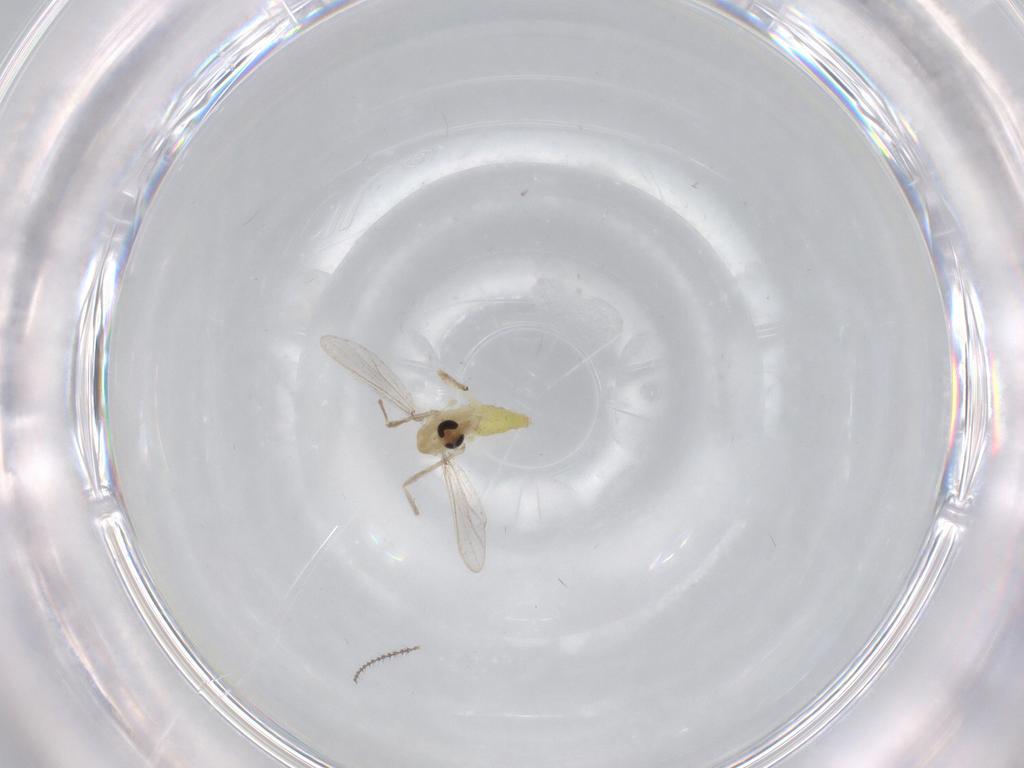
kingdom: Animalia
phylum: Arthropoda
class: Insecta
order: Diptera
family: Chironomidae
